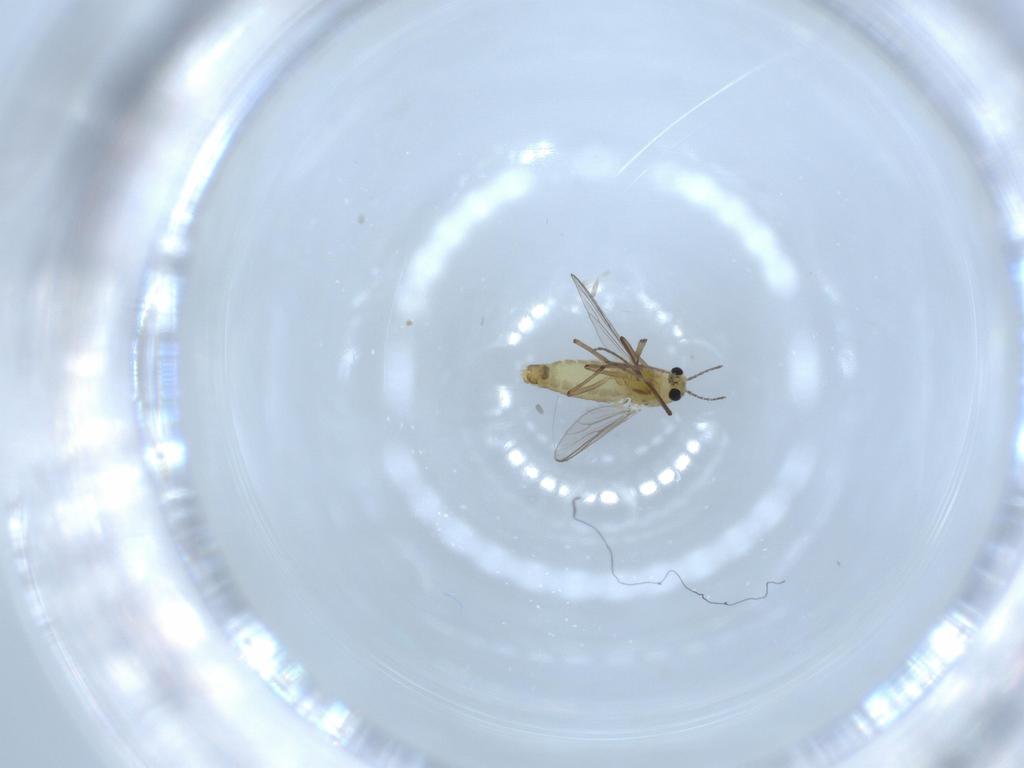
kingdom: Animalia
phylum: Arthropoda
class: Insecta
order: Diptera
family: Chironomidae
